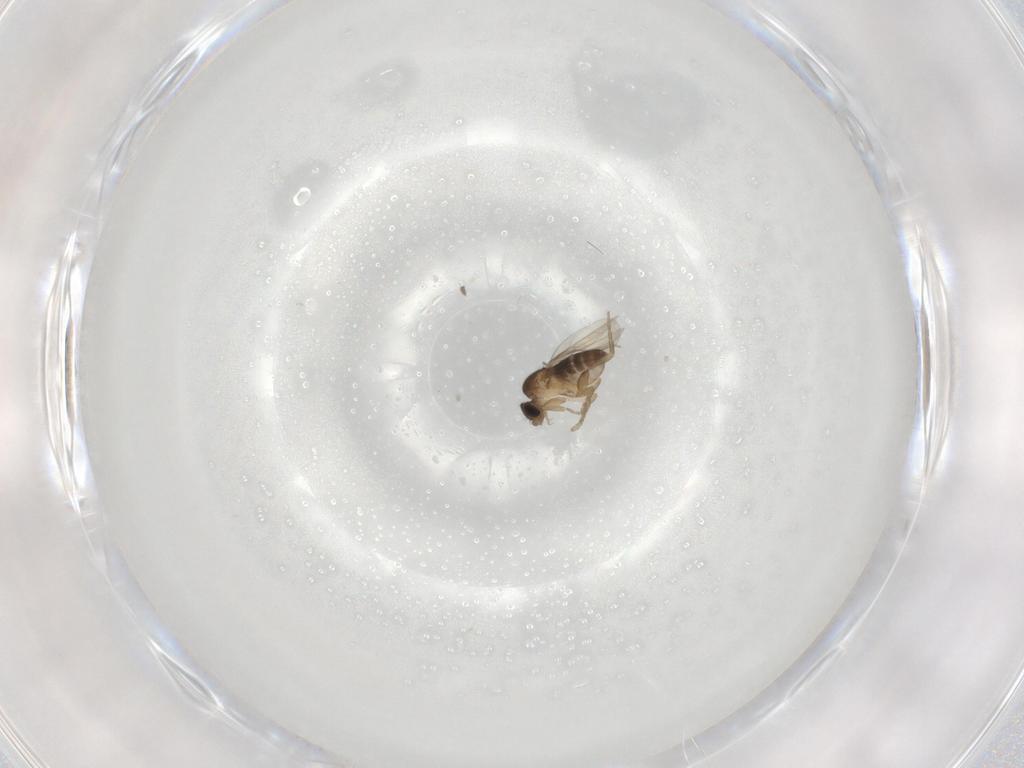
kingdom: Animalia
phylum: Arthropoda
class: Insecta
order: Diptera
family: Phoridae
